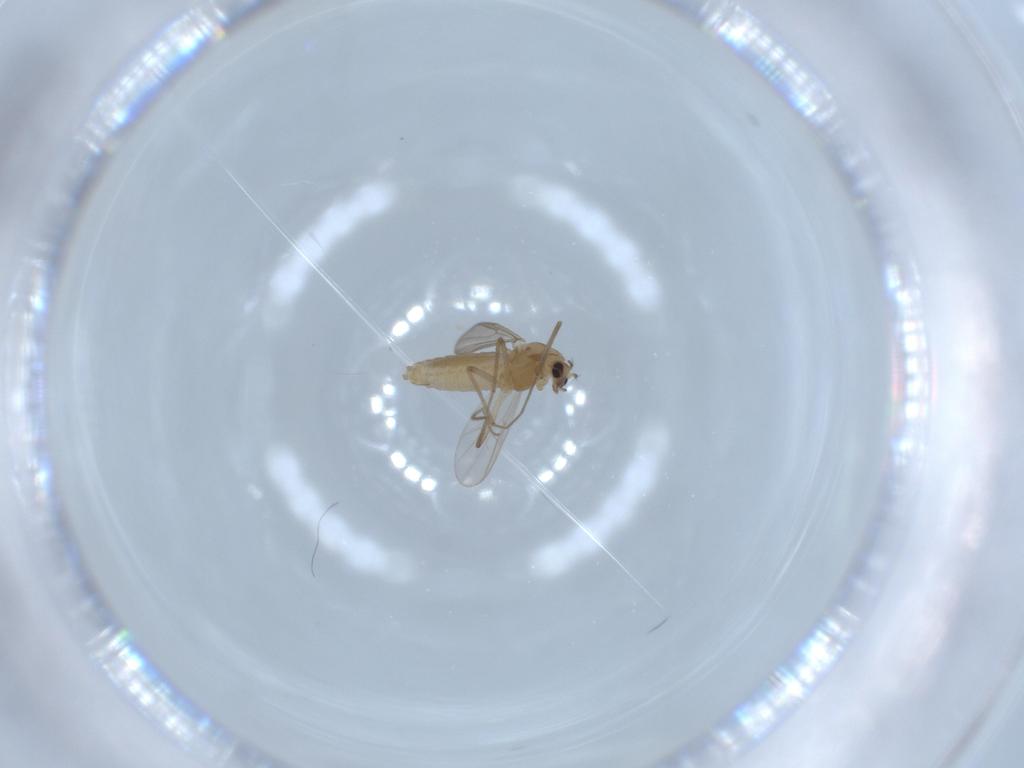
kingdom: Animalia
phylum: Arthropoda
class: Insecta
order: Diptera
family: Chironomidae
